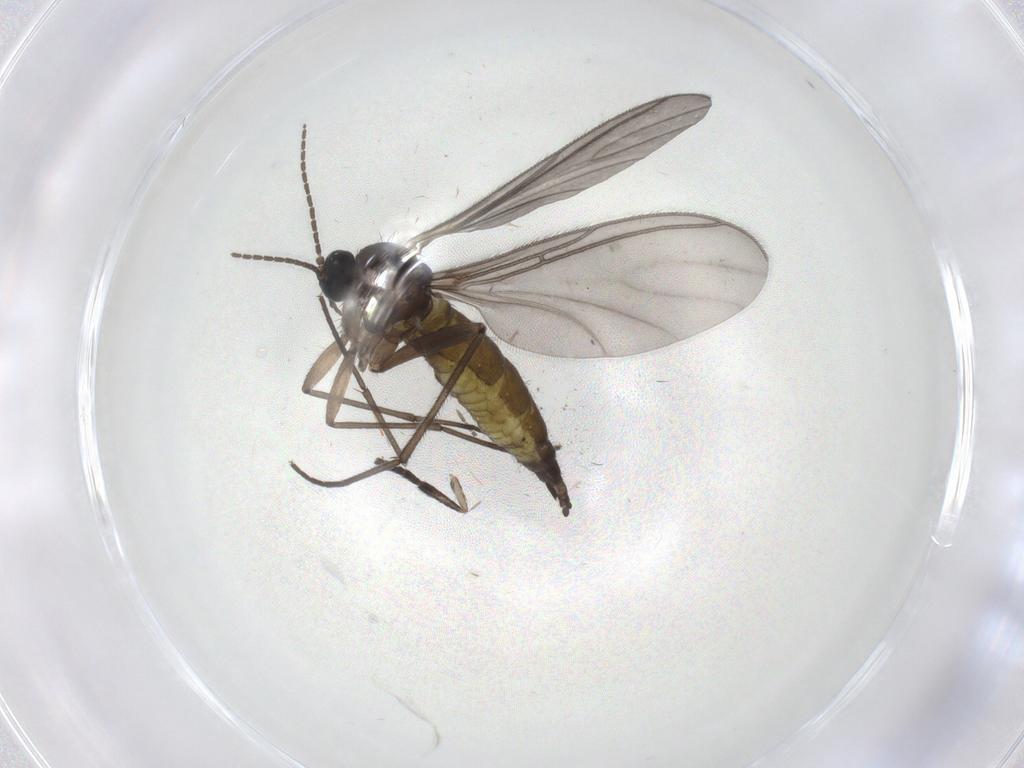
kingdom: Animalia
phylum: Arthropoda
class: Insecta
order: Diptera
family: Sciaridae
